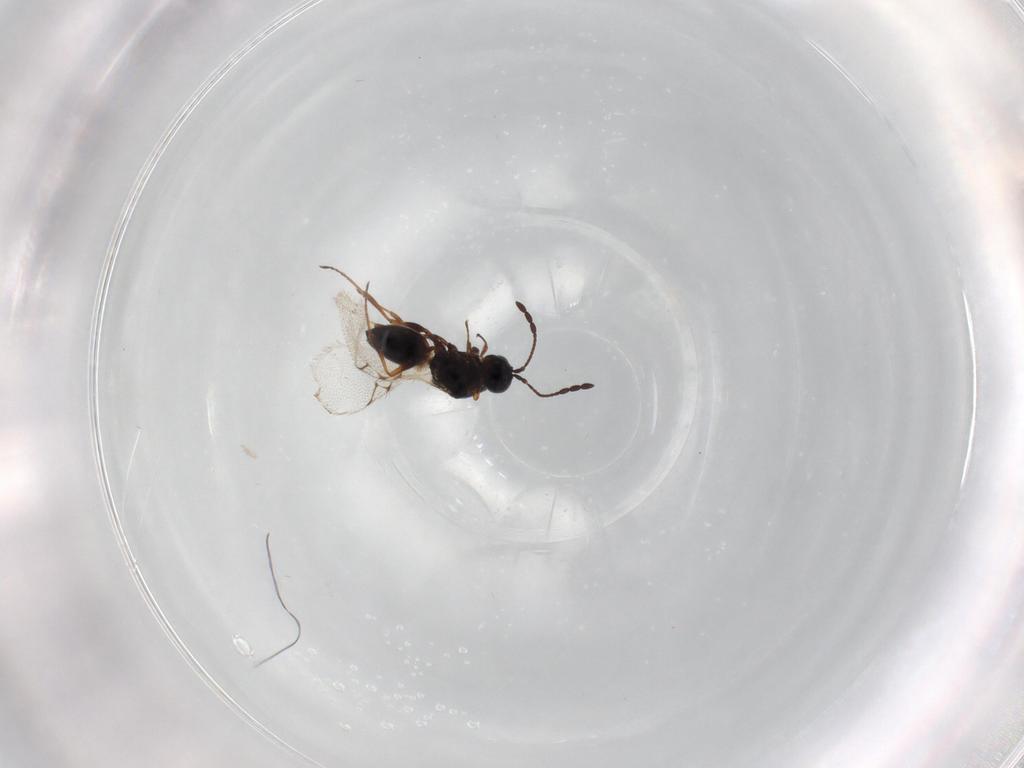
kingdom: Animalia
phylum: Arthropoda
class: Insecta
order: Hymenoptera
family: Figitidae
